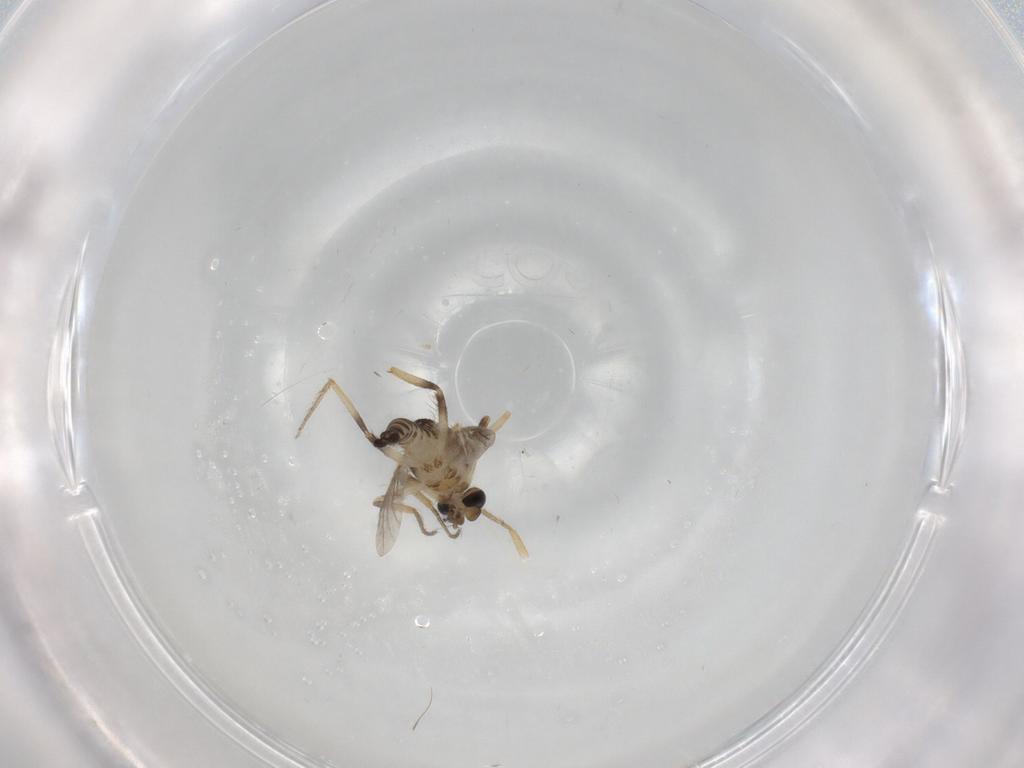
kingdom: Animalia
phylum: Arthropoda
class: Insecta
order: Diptera
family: Ceratopogonidae
